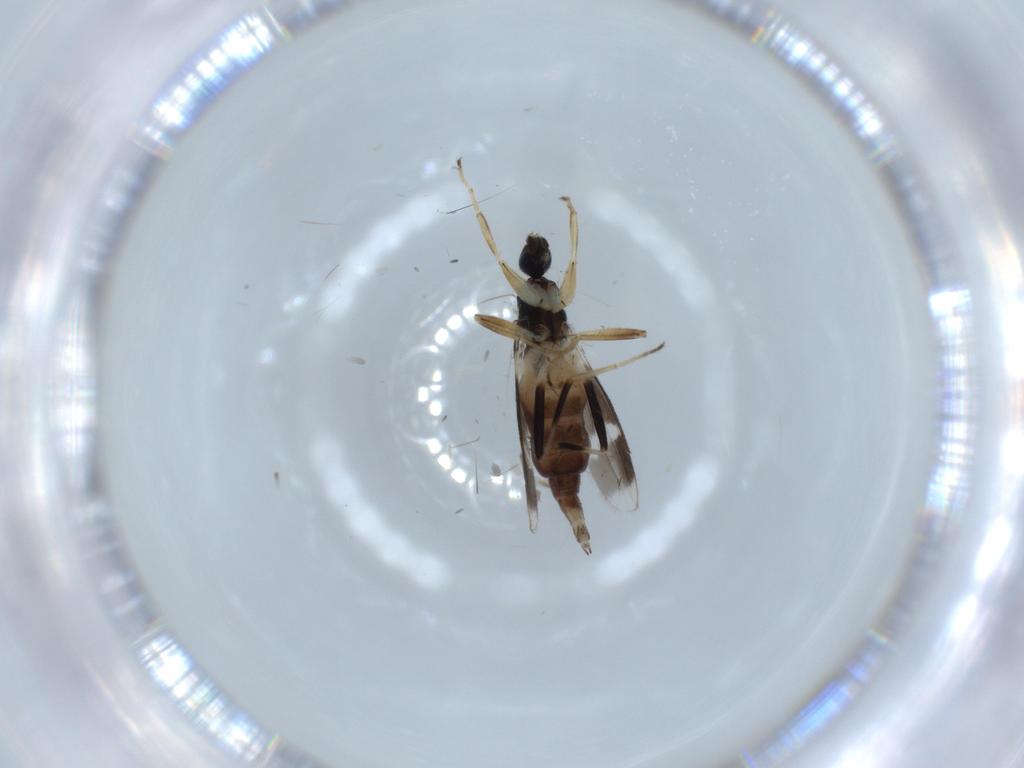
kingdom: Animalia
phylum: Arthropoda
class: Insecta
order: Diptera
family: Hybotidae
